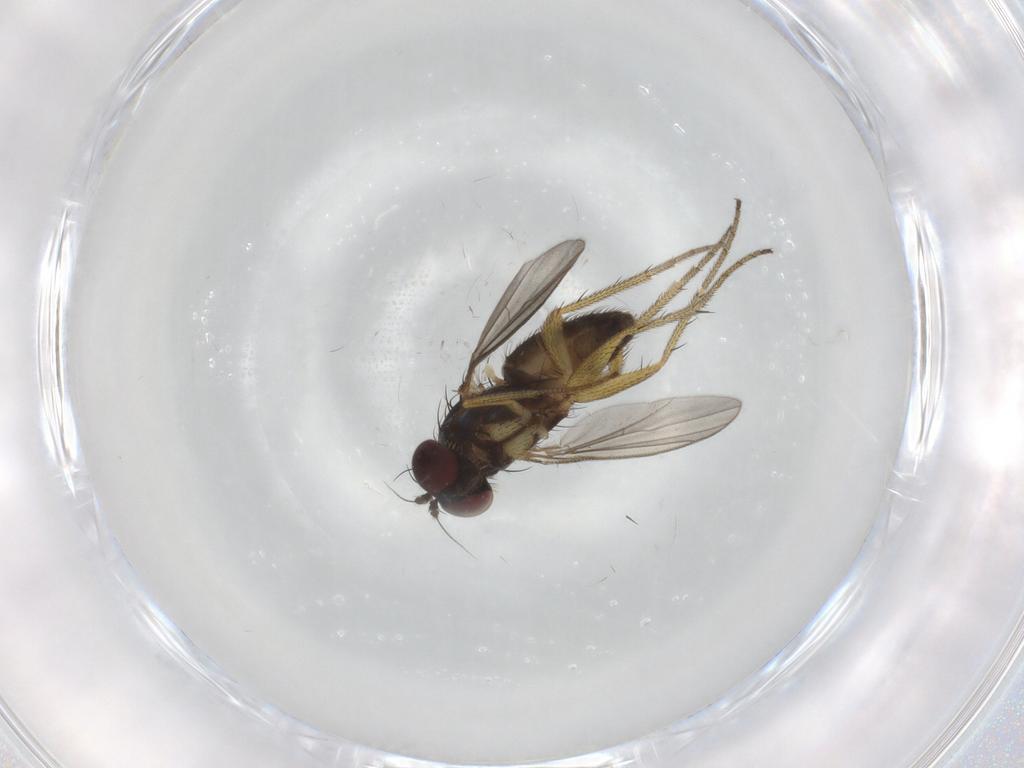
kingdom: Animalia
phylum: Arthropoda
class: Insecta
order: Diptera
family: Dolichopodidae
